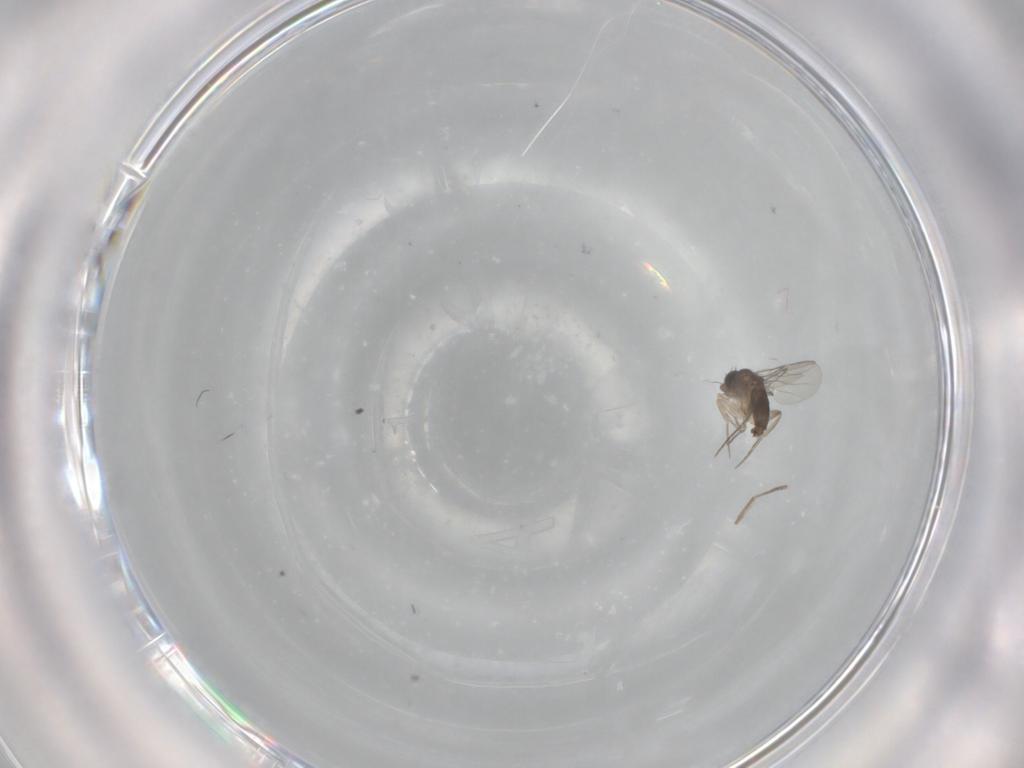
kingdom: Animalia
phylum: Arthropoda
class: Insecta
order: Diptera
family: Psychodidae
